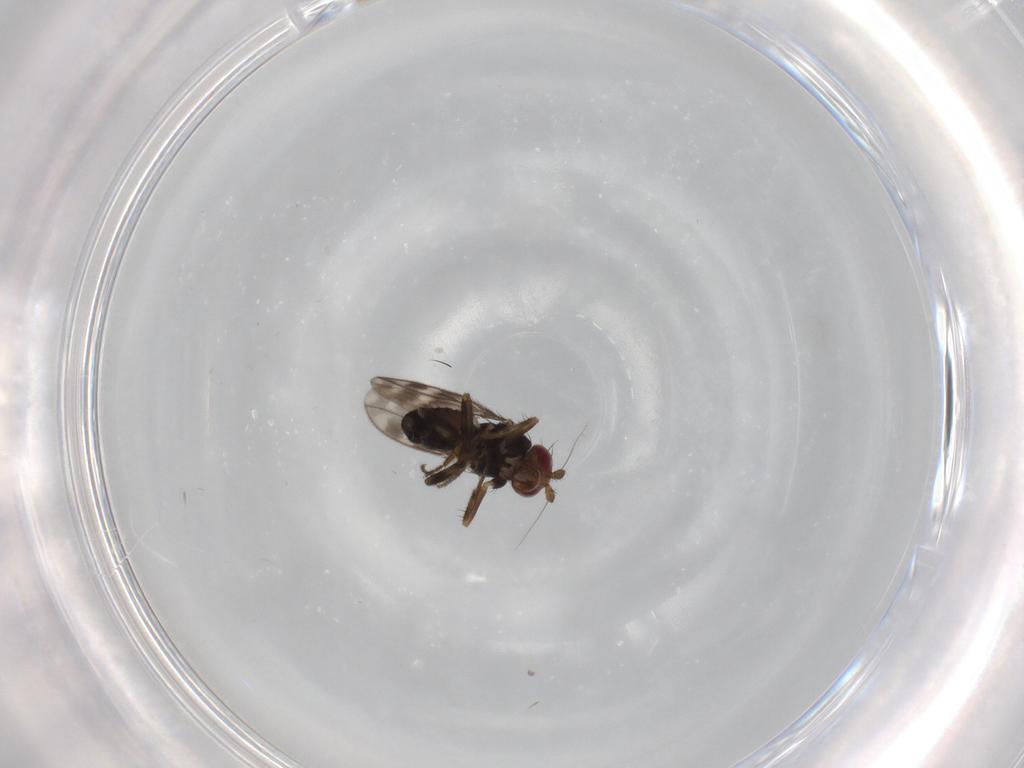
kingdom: Animalia
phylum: Arthropoda
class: Insecta
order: Diptera
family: Sphaeroceridae
